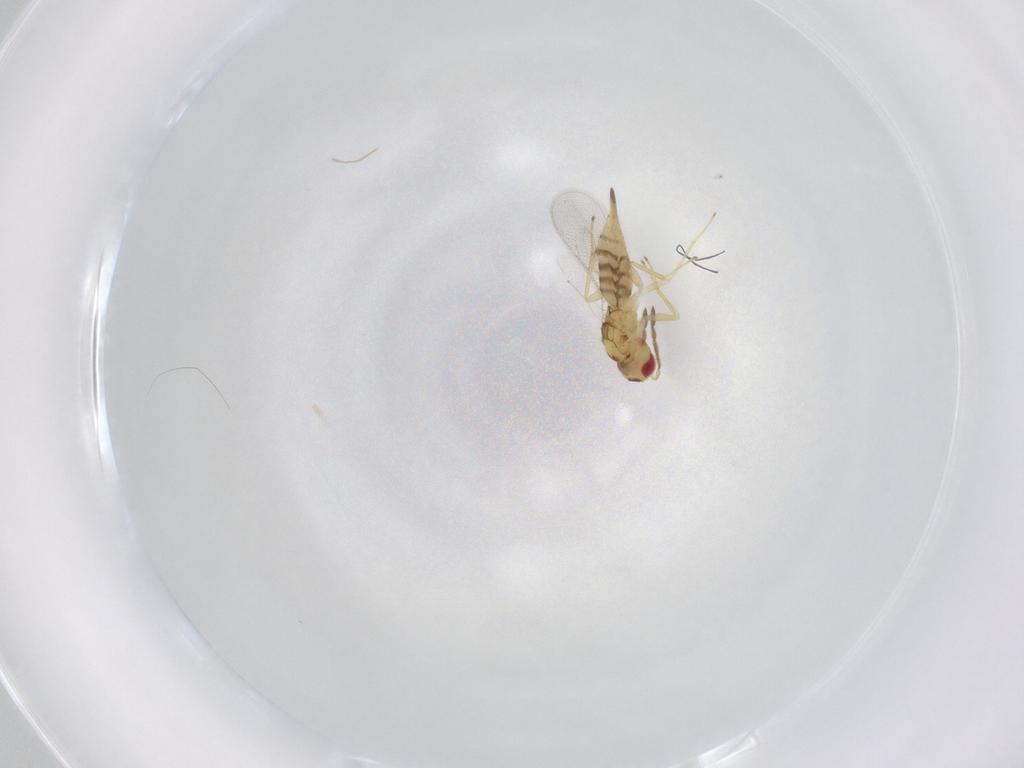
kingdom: Animalia
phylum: Arthropoda
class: Insecta
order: Hymenoptera
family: Eulophidae
